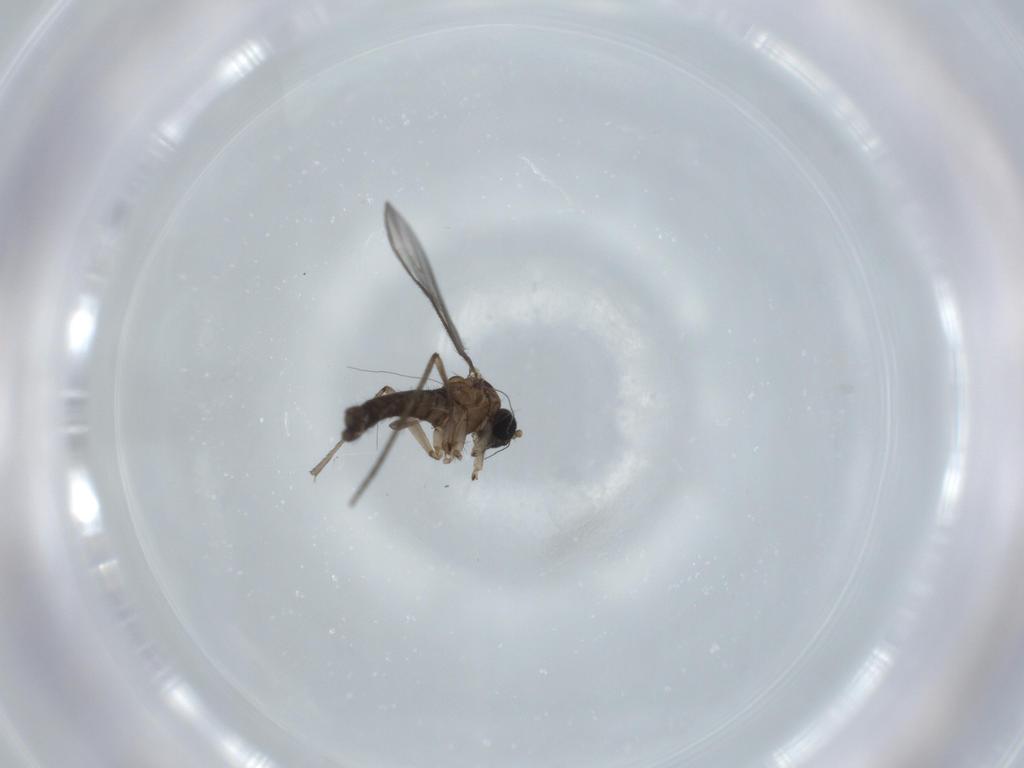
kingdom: Animalia
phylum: Arthropoda
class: Insecta
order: Diptera
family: Sciaridae
